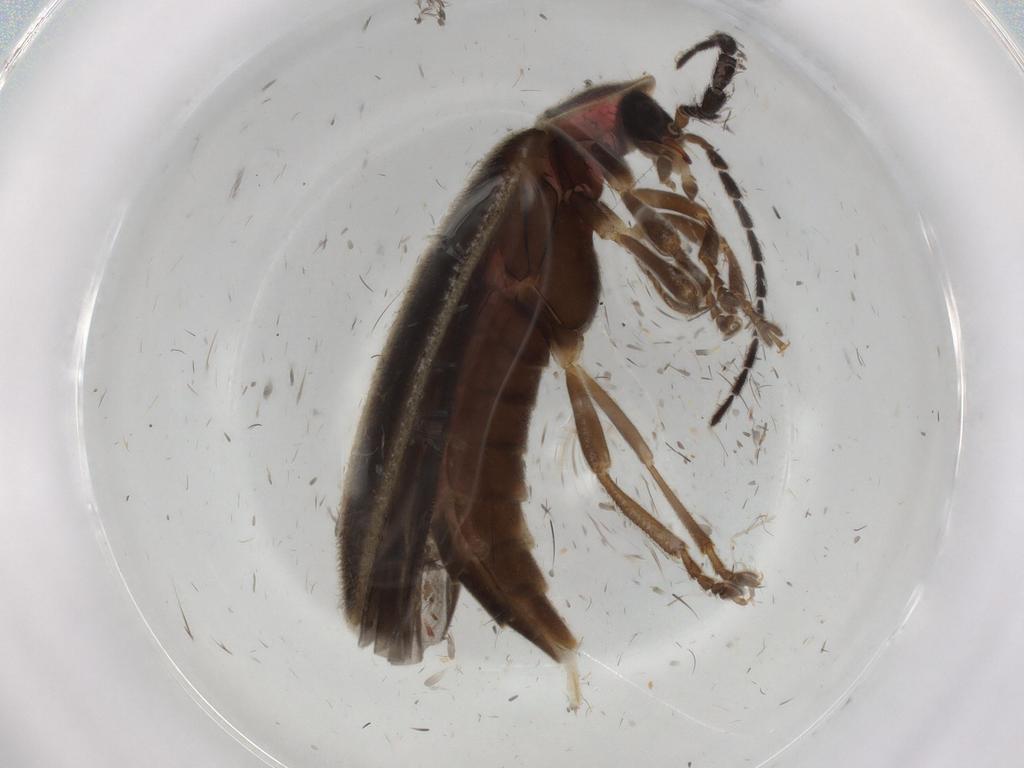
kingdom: Animalia
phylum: Arthropoda
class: Insecta
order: Coleoptera
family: Lampyridae
